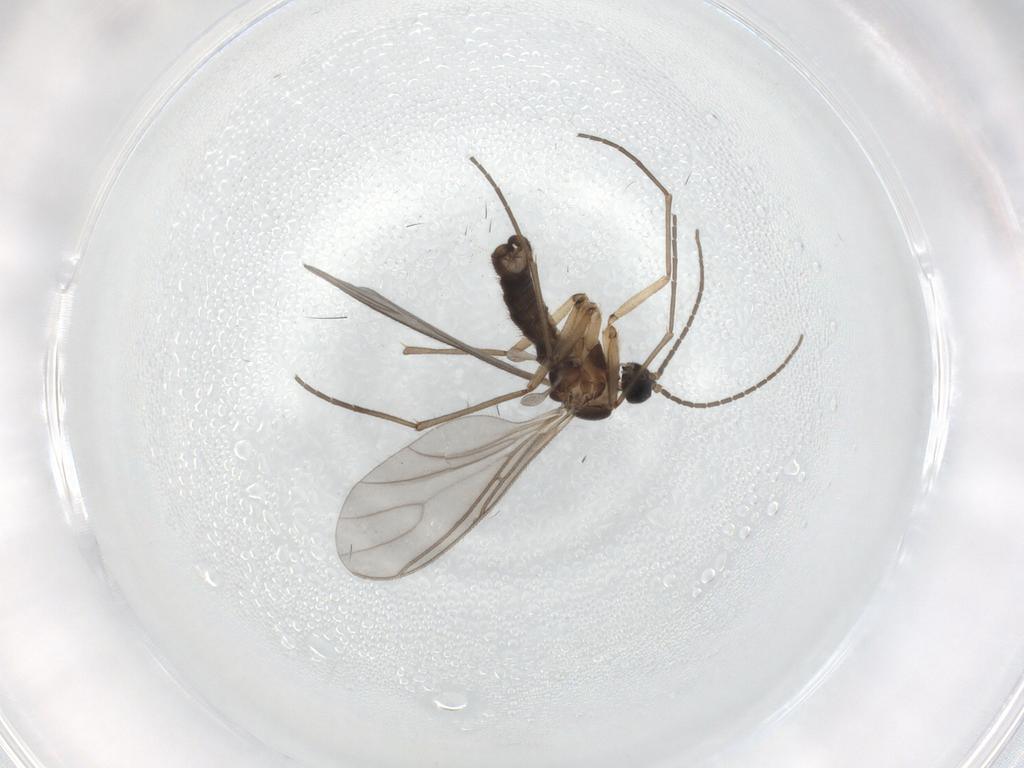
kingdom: Animalia
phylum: Arthropoda
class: Insecta
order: Diptera
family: Sciaridae
